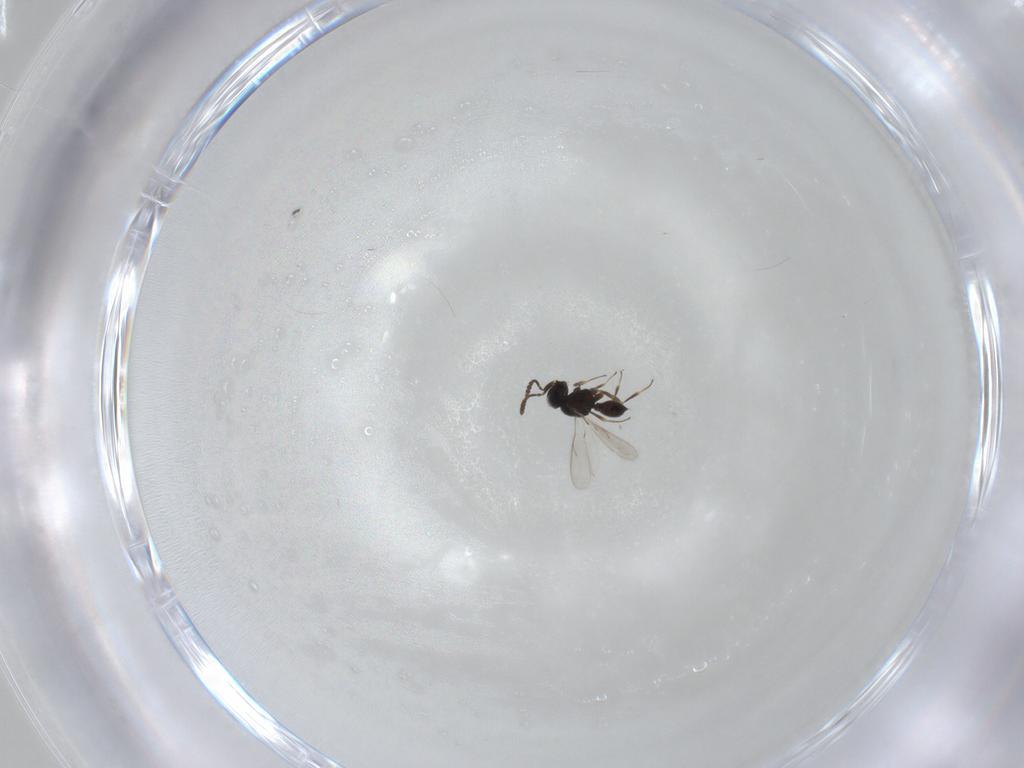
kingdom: Animalia
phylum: Arthropoda
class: Insecta
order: Hymenoptera
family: Scelionidae
